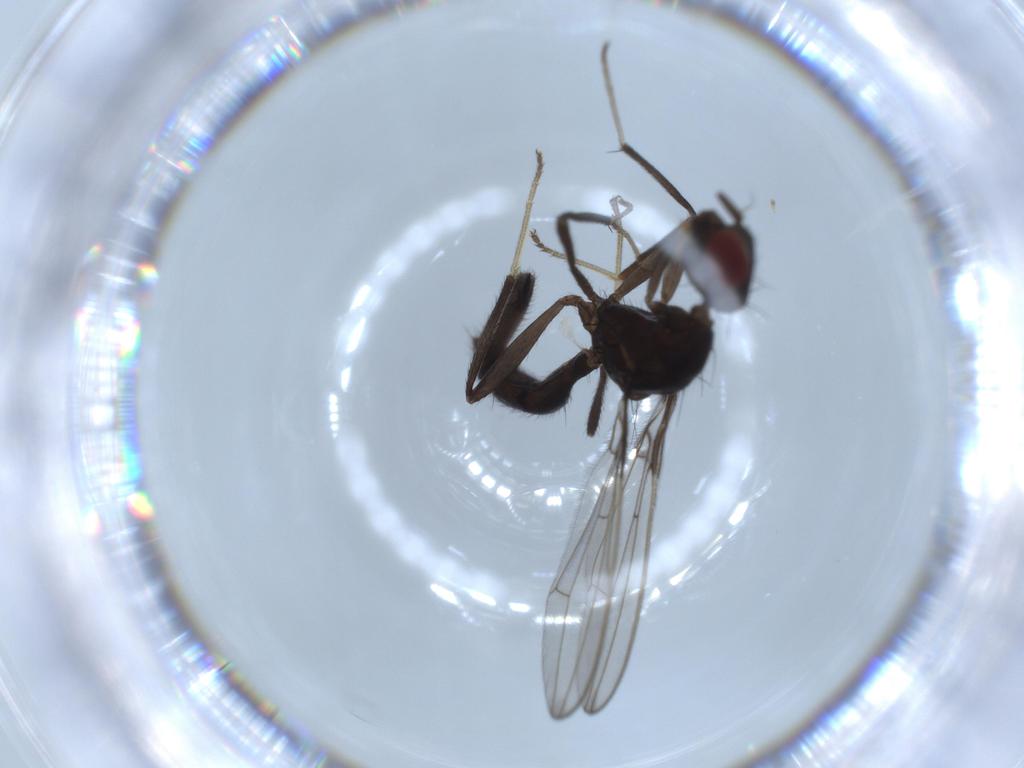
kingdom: Animalia
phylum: Arthropoda
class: Insecta
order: Diptera
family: Richardiidae
